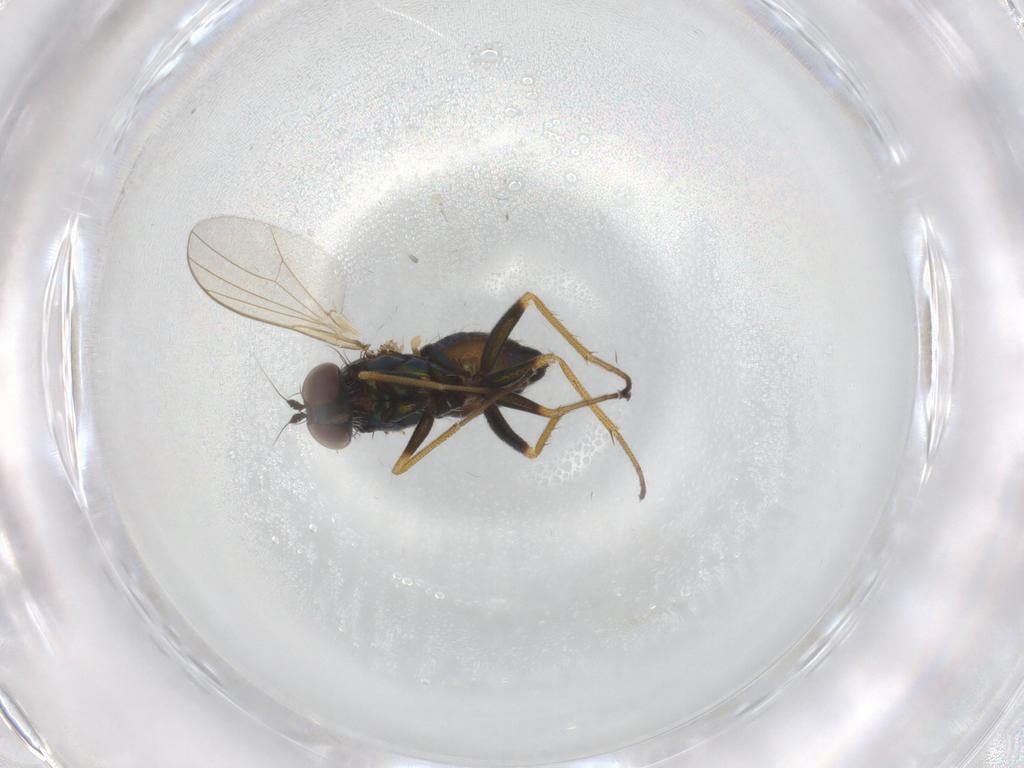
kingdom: Animalia
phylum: Arthropoda
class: Insecta
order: Diptera
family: Dolichopodidae
